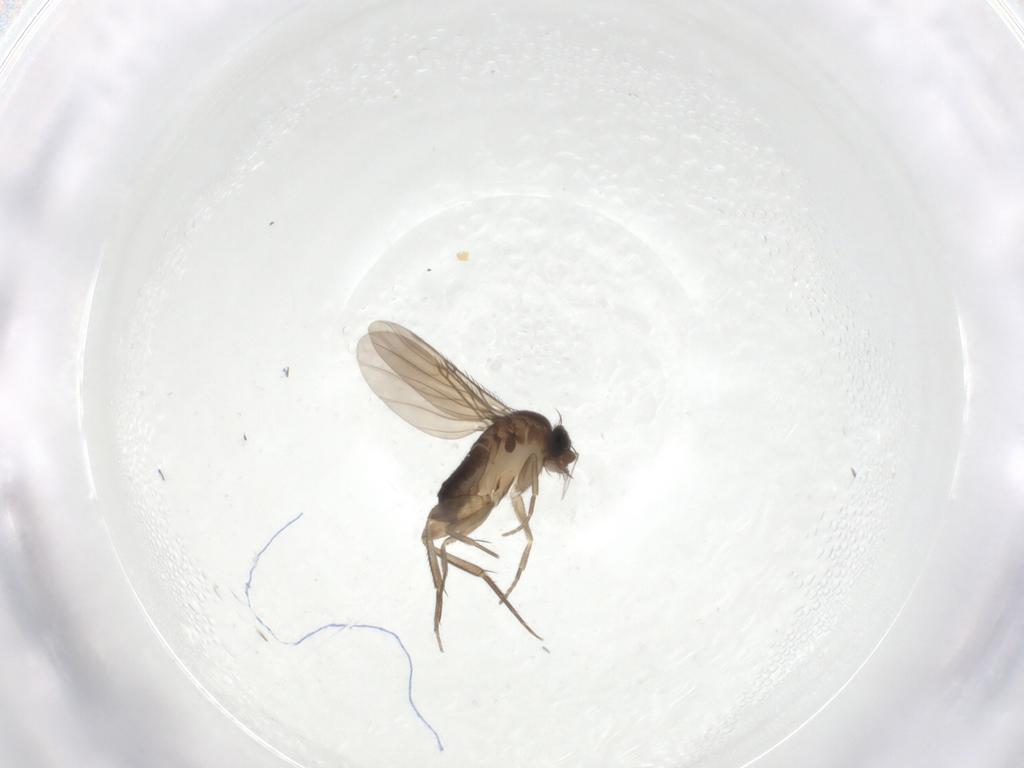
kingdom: Animalia
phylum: Arthropoda
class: Insecta
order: Diptera
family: Phoridae
